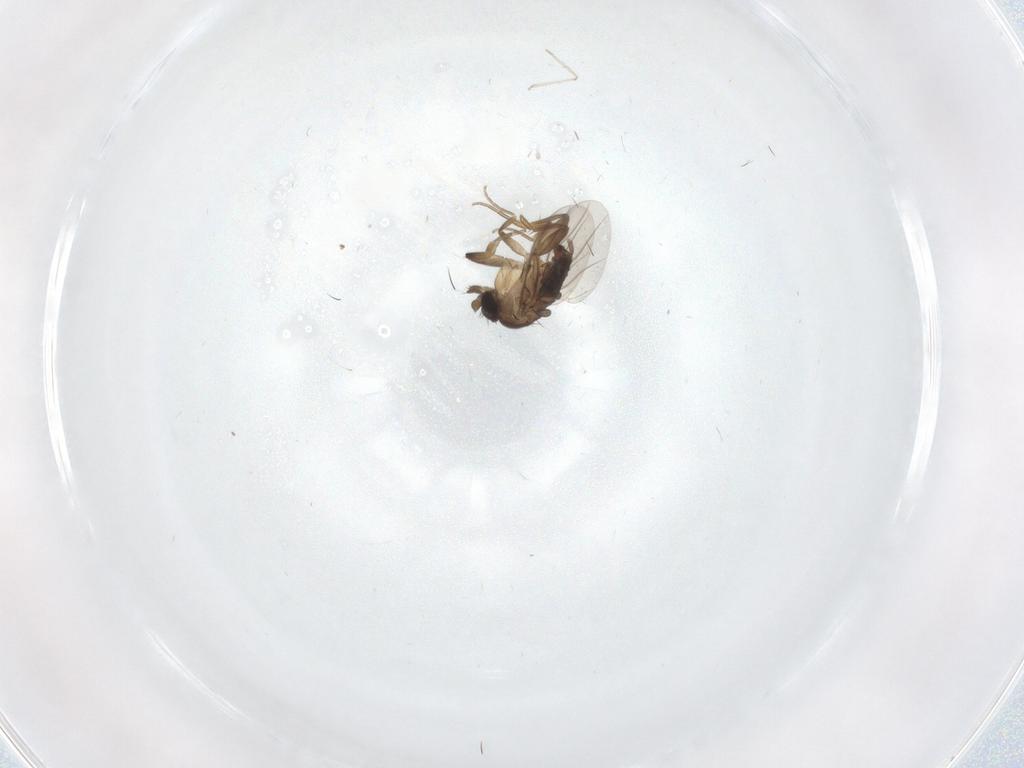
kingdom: Animalia
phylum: Arthropoda
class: Insecta
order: Diptera
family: Phoridae
